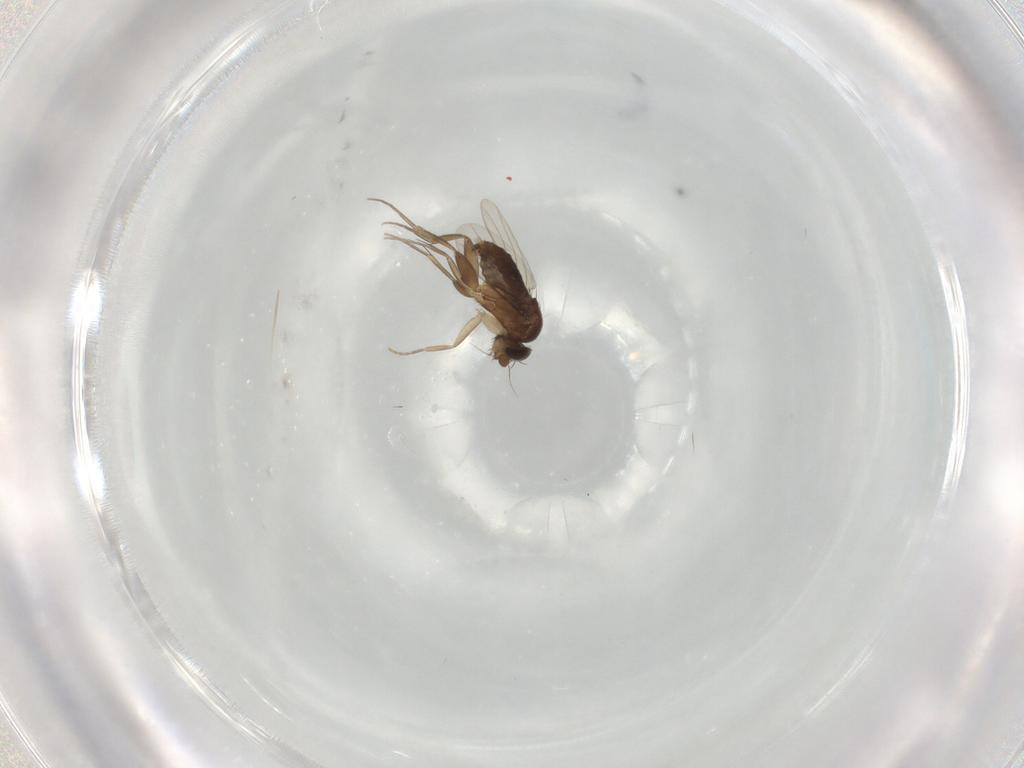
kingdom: Animalia
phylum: Arthropoda
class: Insecta
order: Diptera
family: Phoridae
